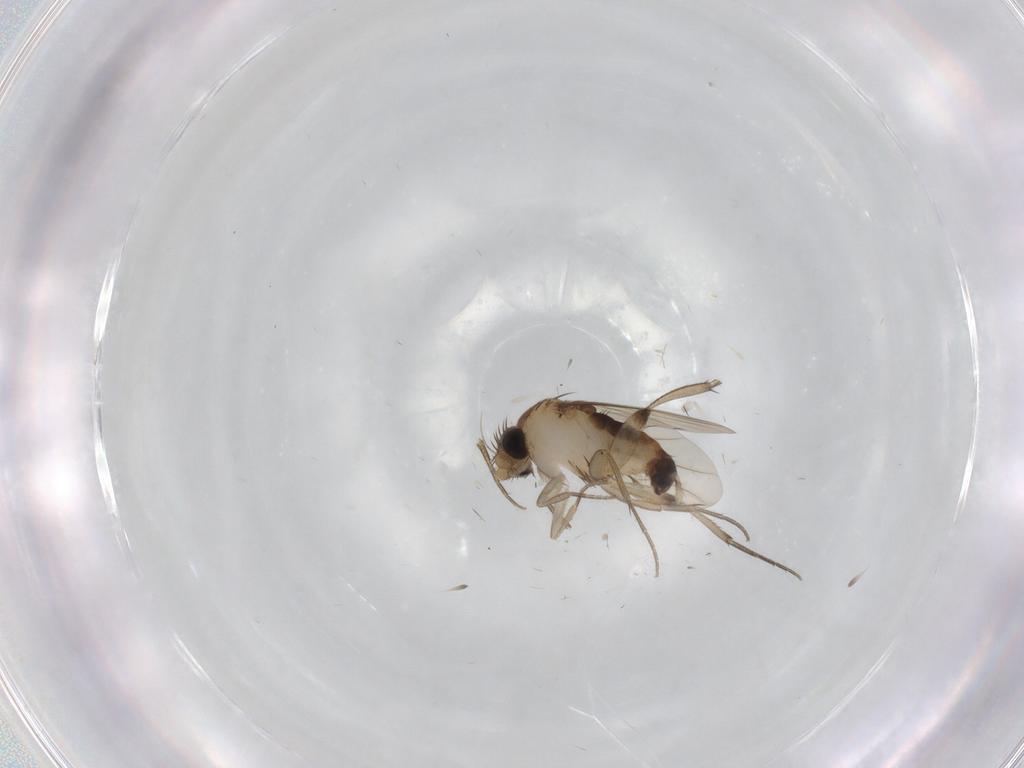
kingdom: Animalia
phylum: Arthropoda
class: Insecta
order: Diptera
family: Phoridae
